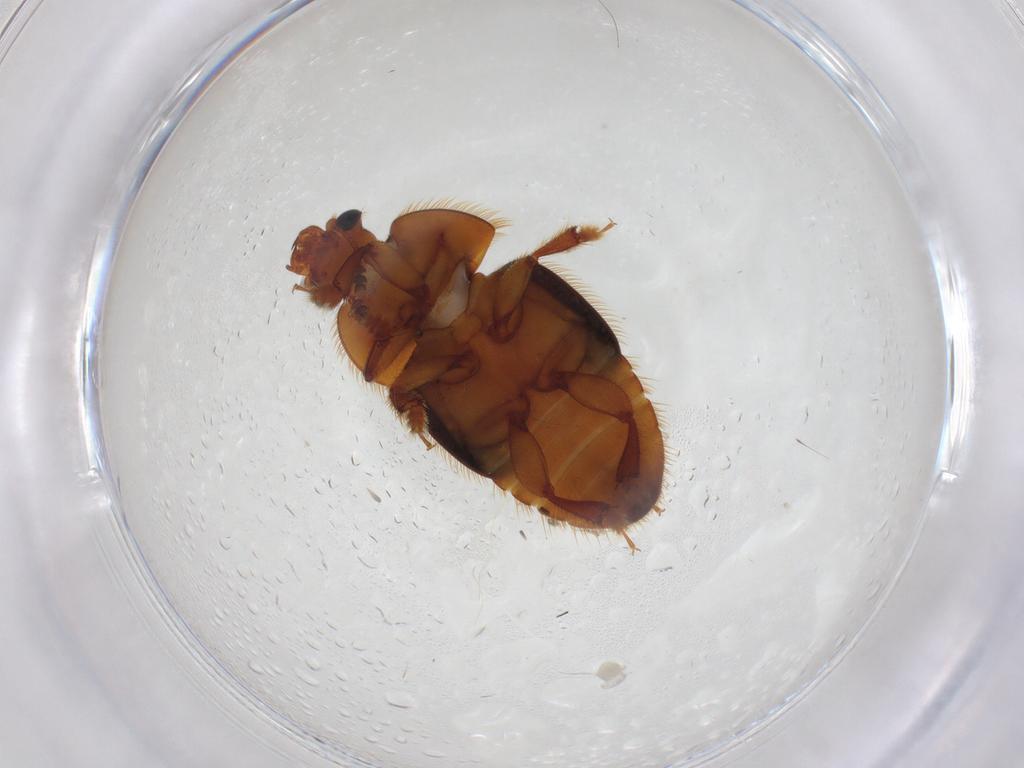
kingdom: Animalia
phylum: Arthropoda
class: Insecta
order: Coleoptera
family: Nitidulidae
